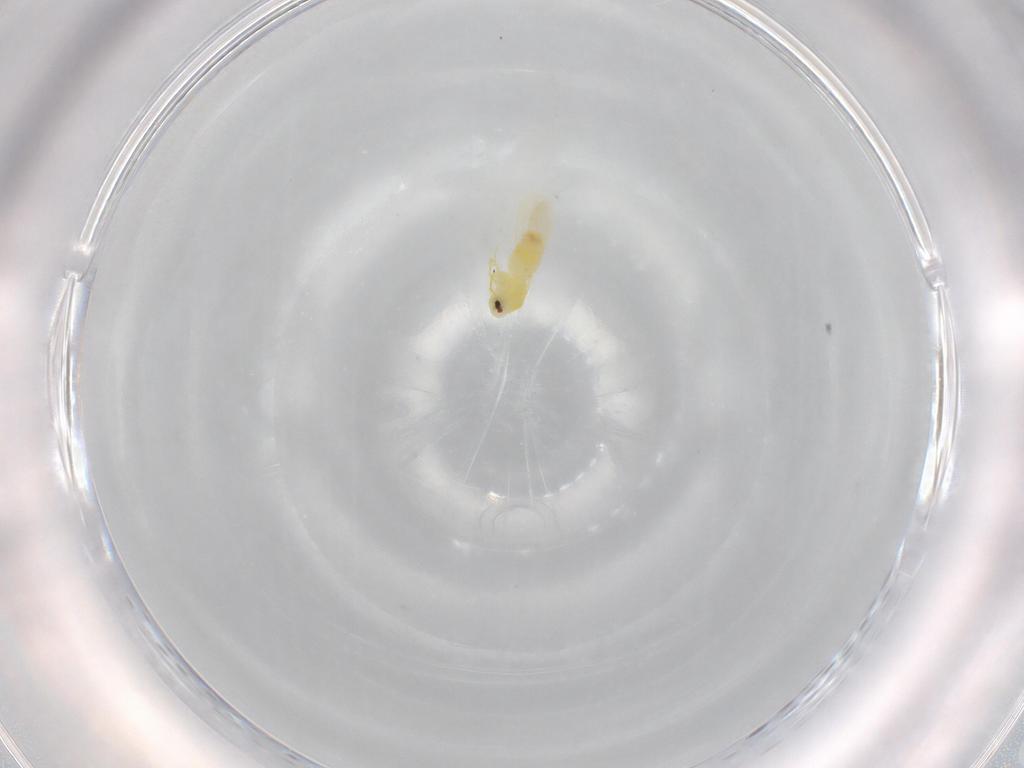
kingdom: Animalia
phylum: Arthropoda
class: Insecta
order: Hemiptera
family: Aleyrodidae
